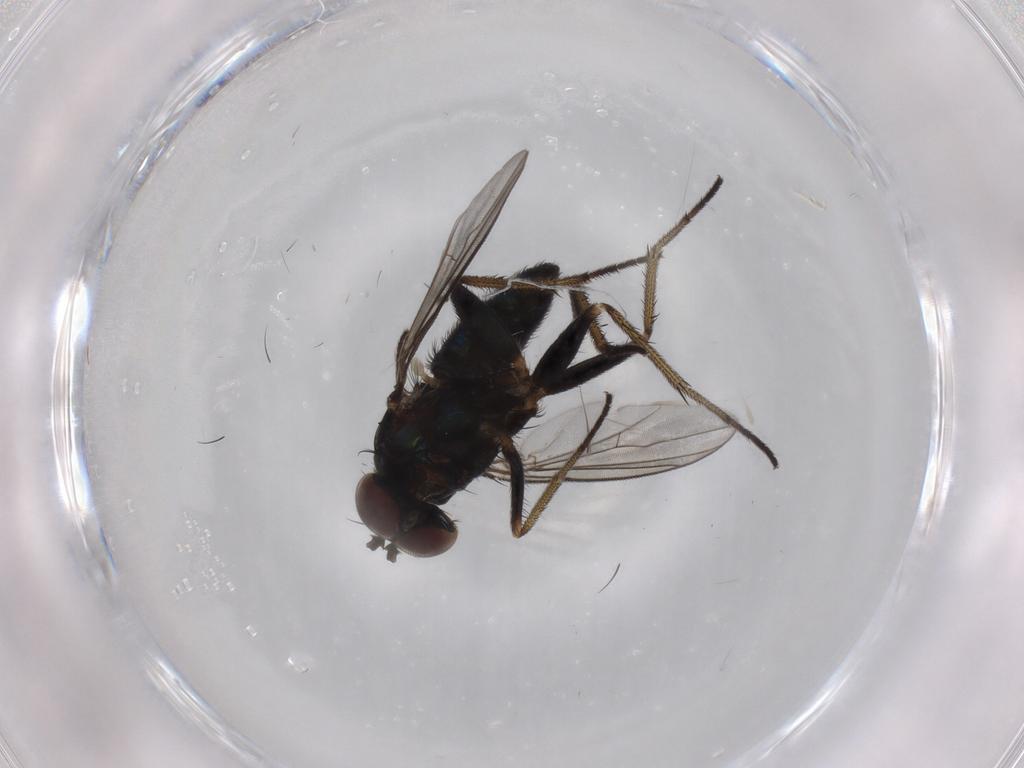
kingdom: Animalia
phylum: Arthropoda
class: Insecta
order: Diptera
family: Dolichopodidae
